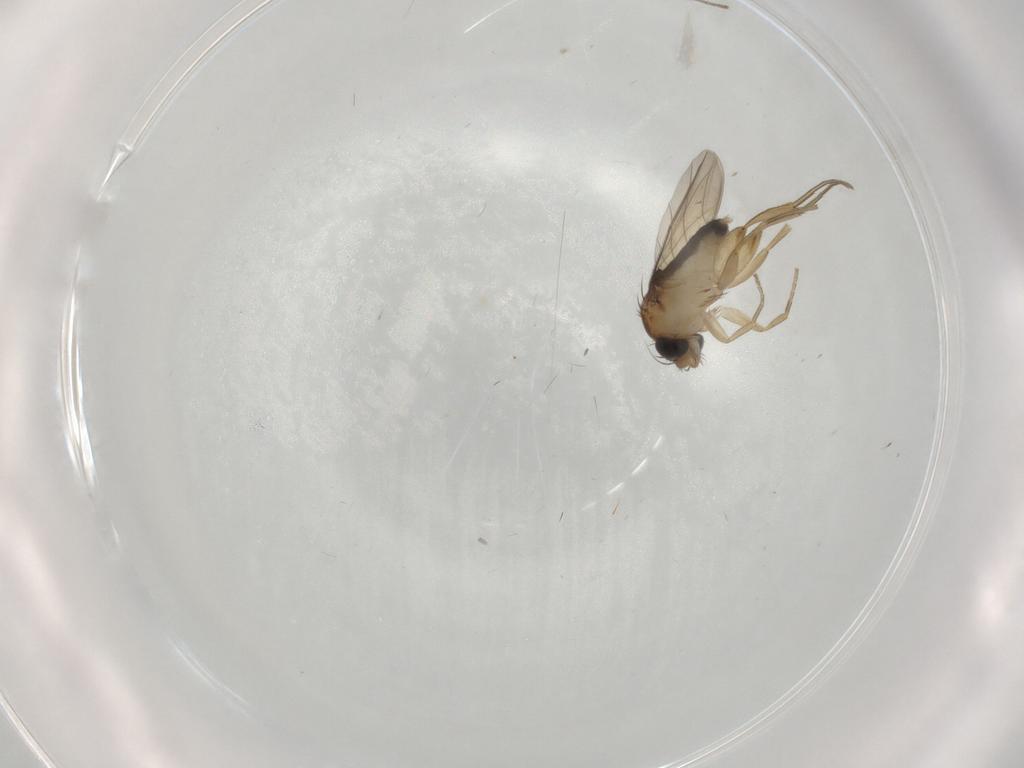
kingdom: Animalia
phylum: Arthropoda
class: Insecta
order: Diptera
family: Phoridae
